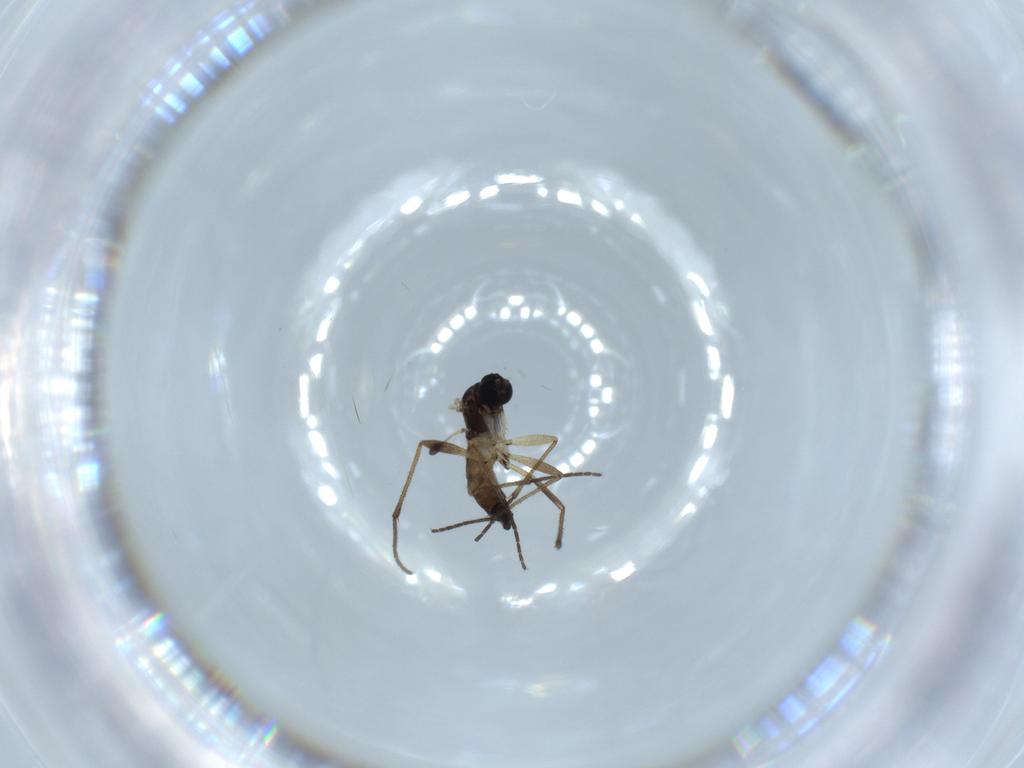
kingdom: Animalia
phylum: Arthropoda
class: Insecta
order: Diptera
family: Sciaridae
